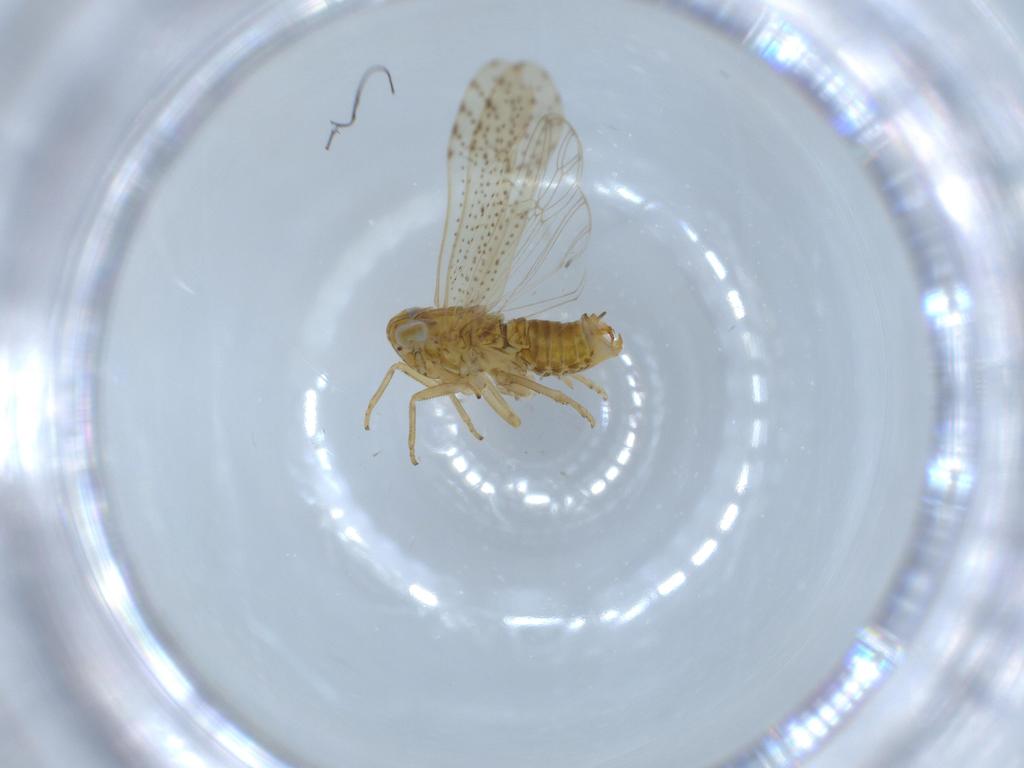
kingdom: Animalia
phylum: Arthropoda
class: Insecta
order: Hemiptera
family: Delphacidae
